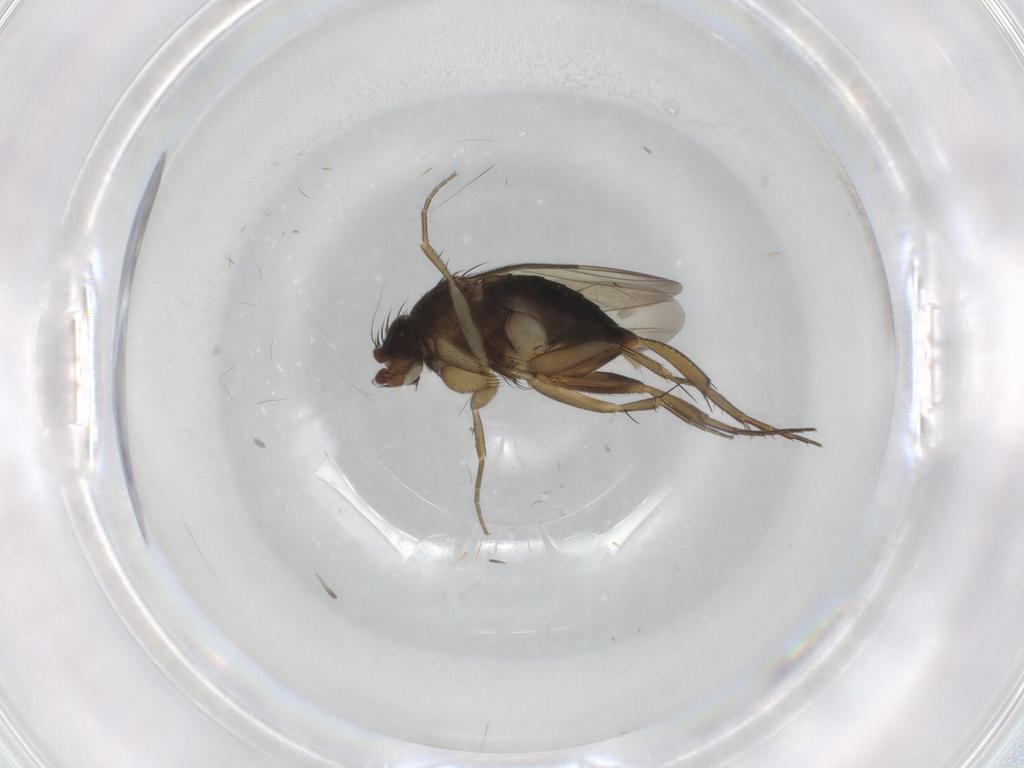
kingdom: Animalia
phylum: Arthropoda
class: Insecta
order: Diptera
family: Phoridae
